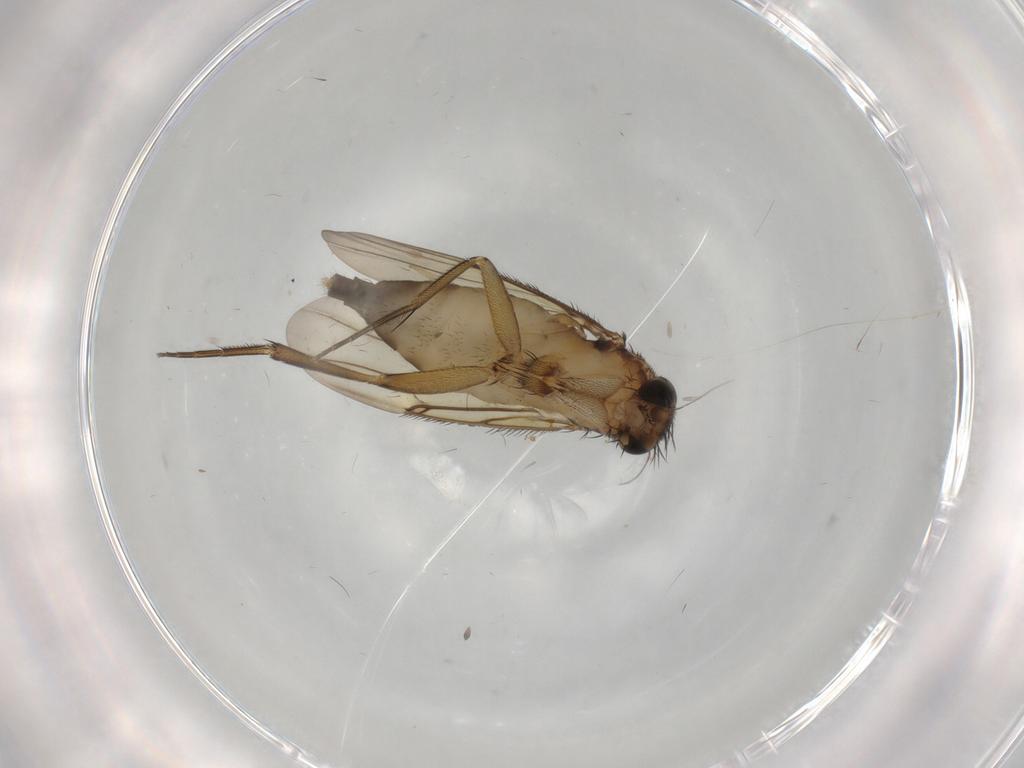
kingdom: Animalia
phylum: Arthropoda
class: Insecta
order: Diptera
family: Phoridae
